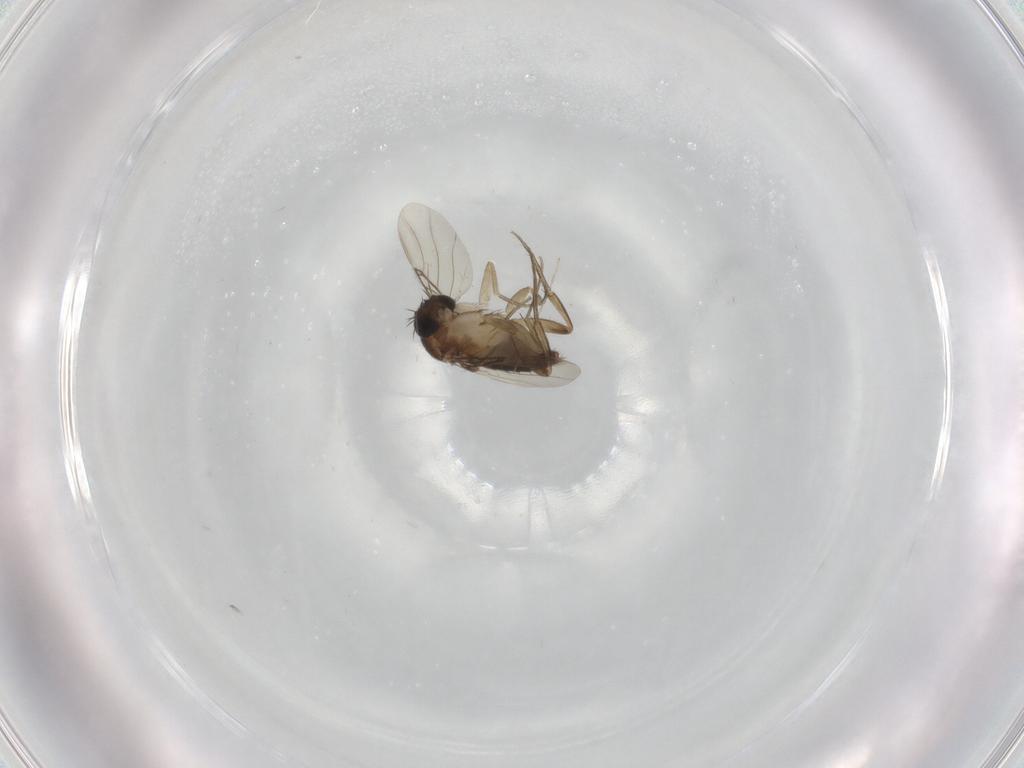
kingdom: Animalia
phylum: Arthropoda
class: Insecta
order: Diptera
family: Phoridae
